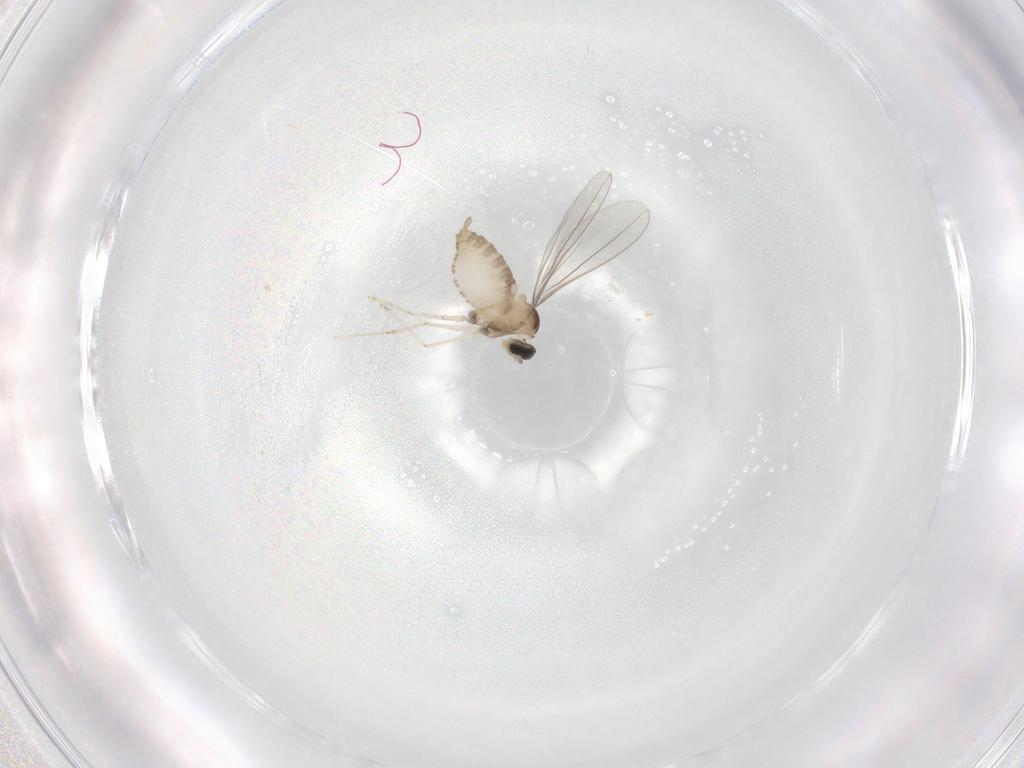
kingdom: Animalia
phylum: Arthropoda
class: Insecta
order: Diptera
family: Cecidomyiidae
